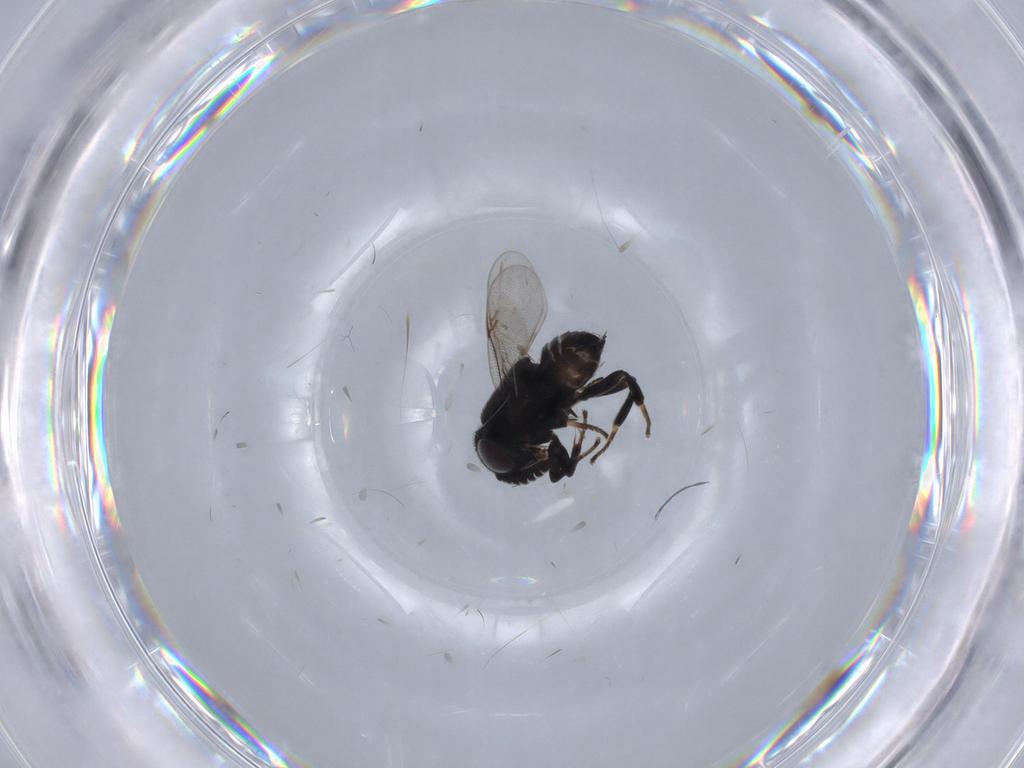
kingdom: Animalia
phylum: Arthropoda
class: Insecta
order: Hymenoptera
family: Encyrtidae
